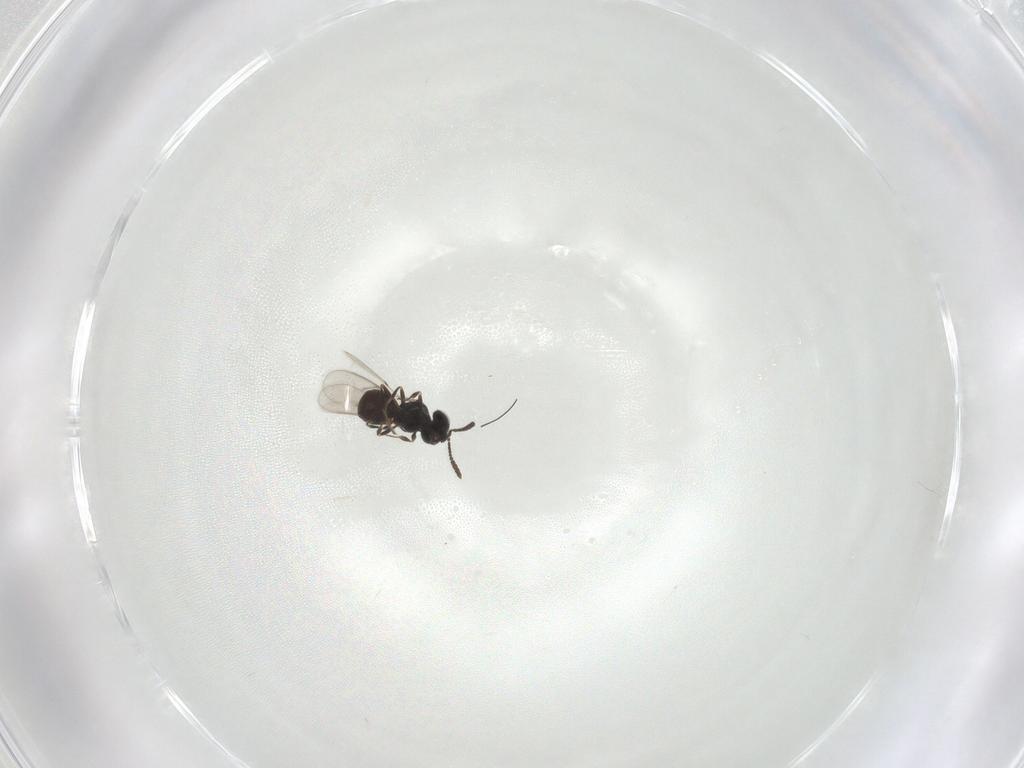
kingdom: Animalia
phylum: Arthropoda
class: Insecta
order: Hymenoptera
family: Scelionidae
